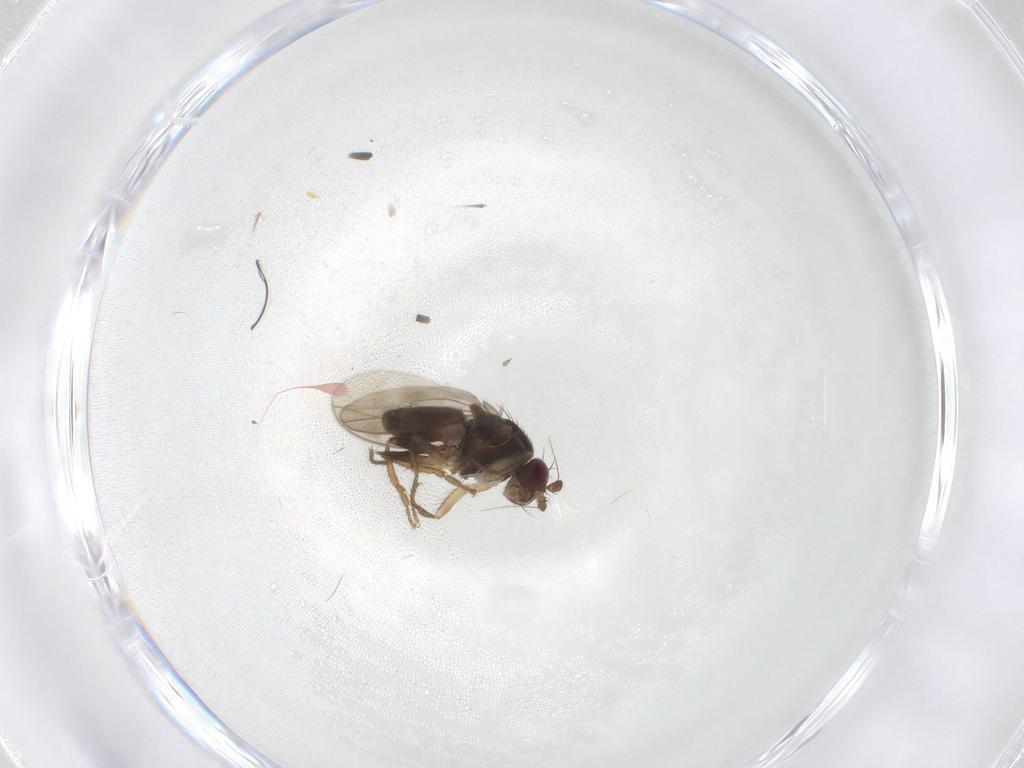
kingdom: Animalia
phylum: Arthropoda
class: Insecta
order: Diptera
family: Sphaeroceridae
